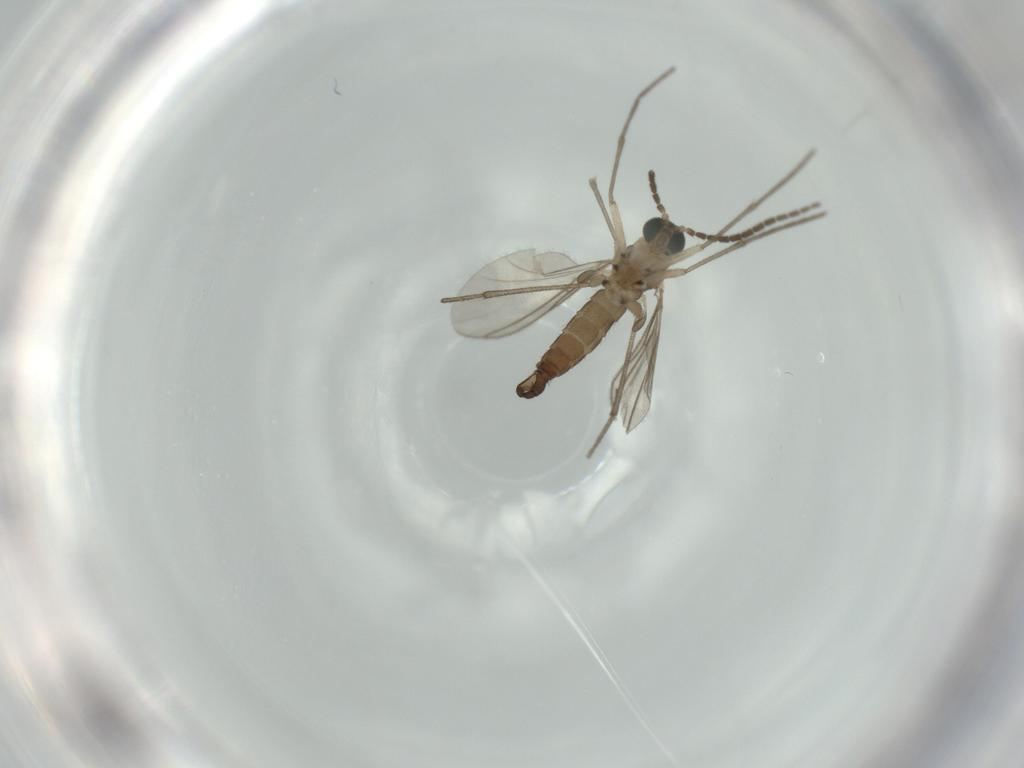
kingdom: Animalia
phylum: Arthropoda
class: Insecta
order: Diptera
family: Sciaridae
